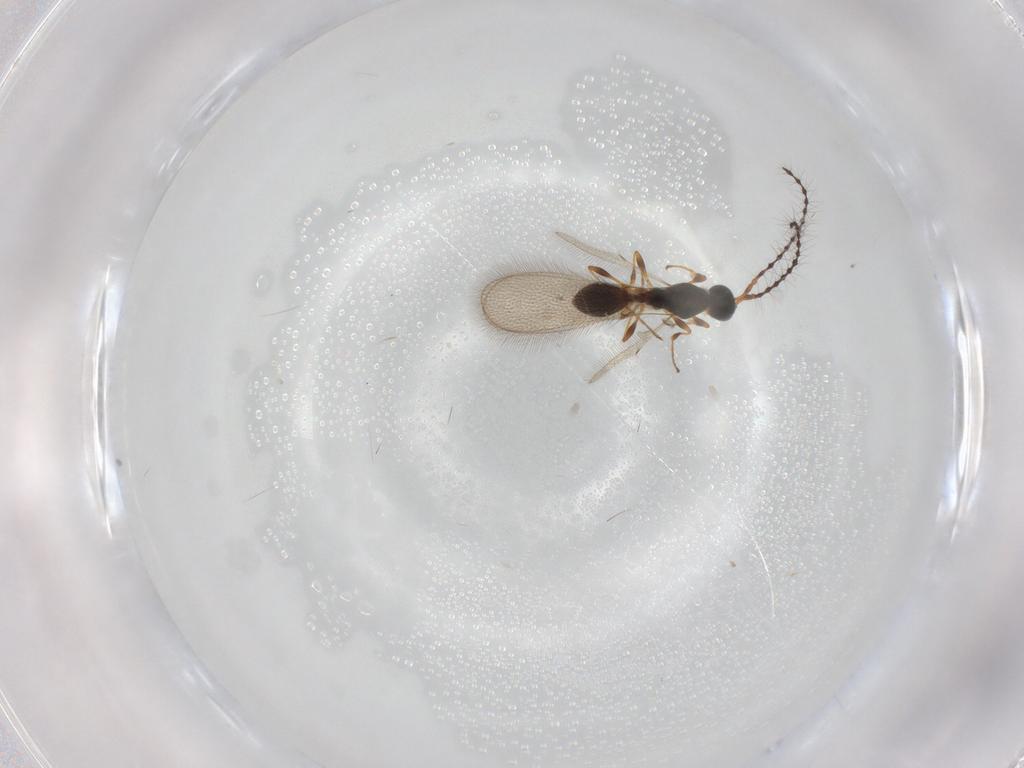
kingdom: Animalia
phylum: Arthropoda
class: Insecta
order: Hymenoptera
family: Diapriidae
